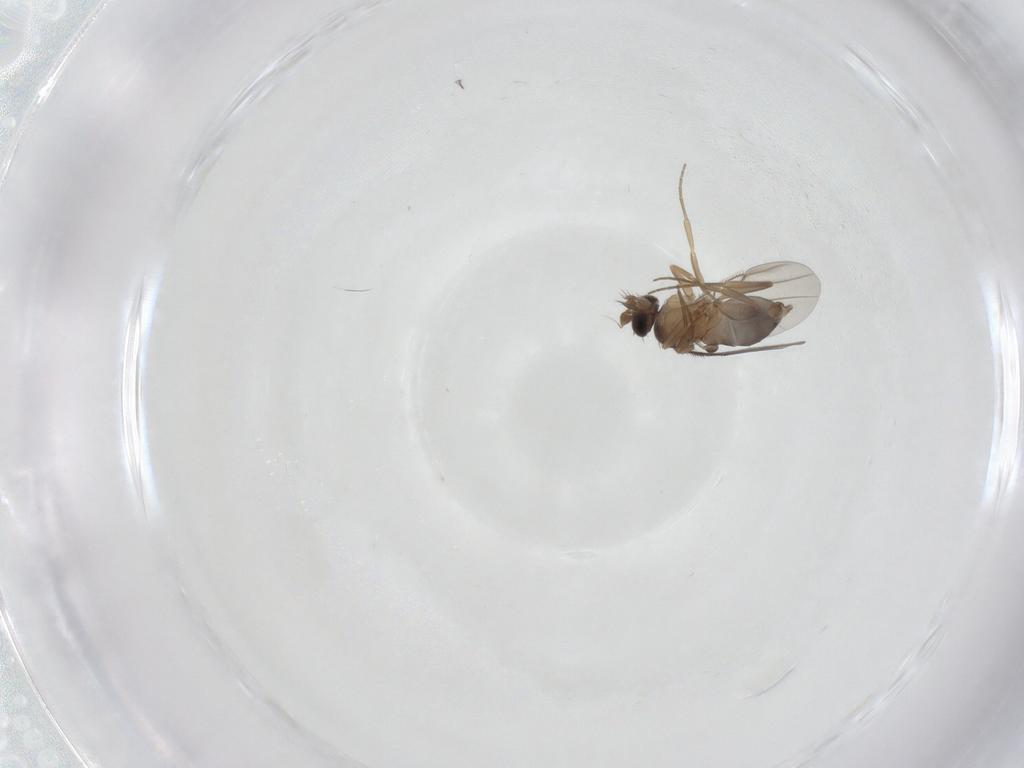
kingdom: Animalia
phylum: Arthropoda
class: Insecta
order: Diptera
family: Phoridae
